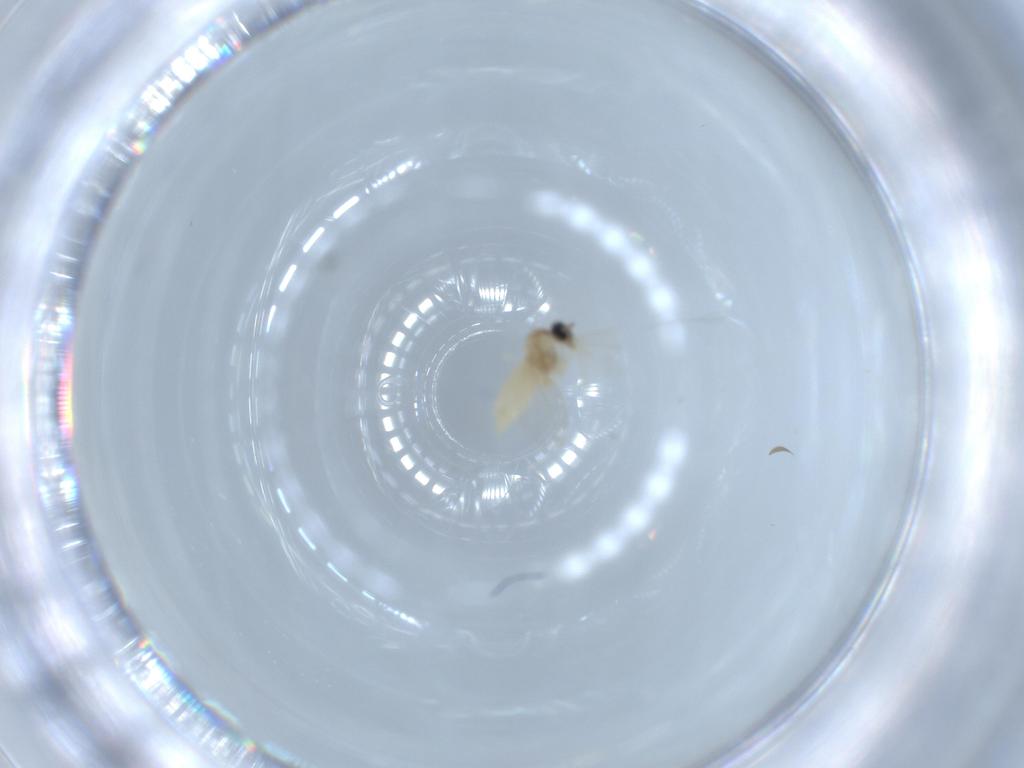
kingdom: Animalia
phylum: Arthropoda
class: Insecta
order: Diptera
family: Cecidomyiidae
